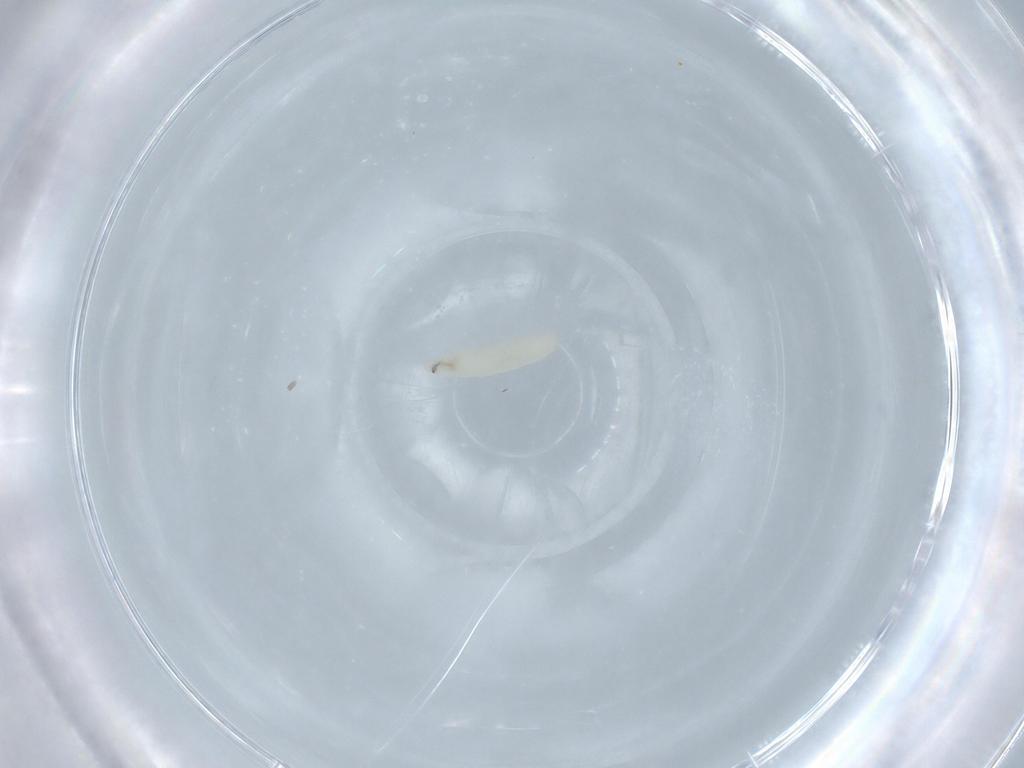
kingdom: Animalia
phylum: Arthropoda
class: Insecta
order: Diptera
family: Sarcophagidae
